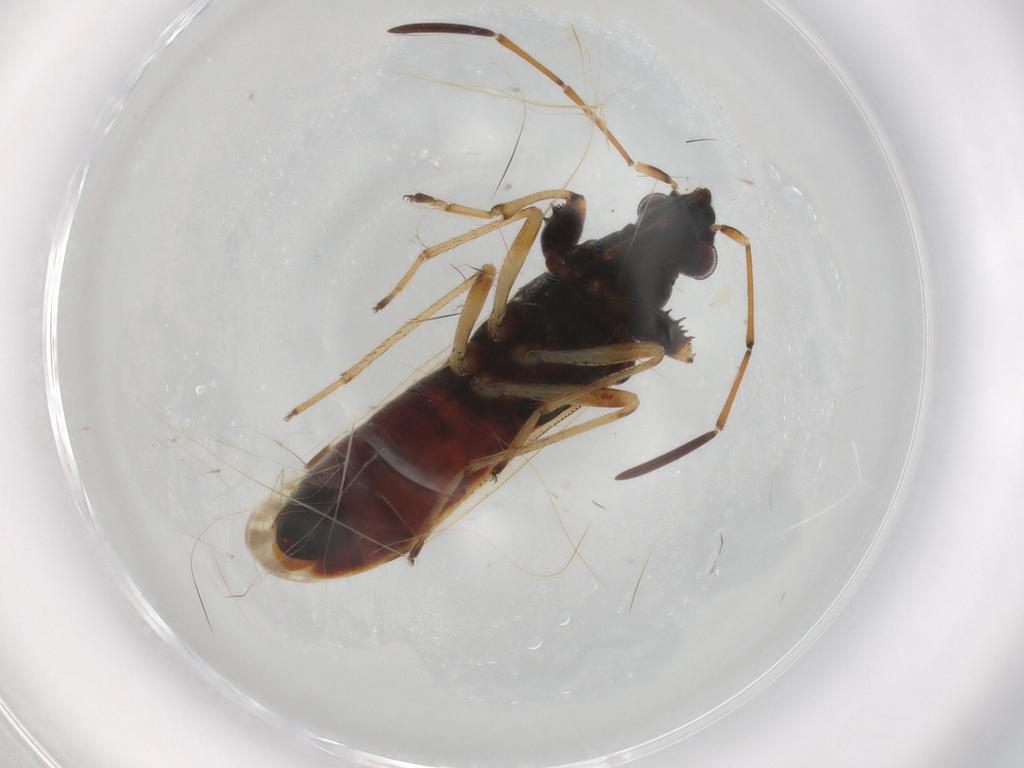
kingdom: Animalia
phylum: Arthropoda
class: Insecta
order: Hemiptera
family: Rhyparochromidae
